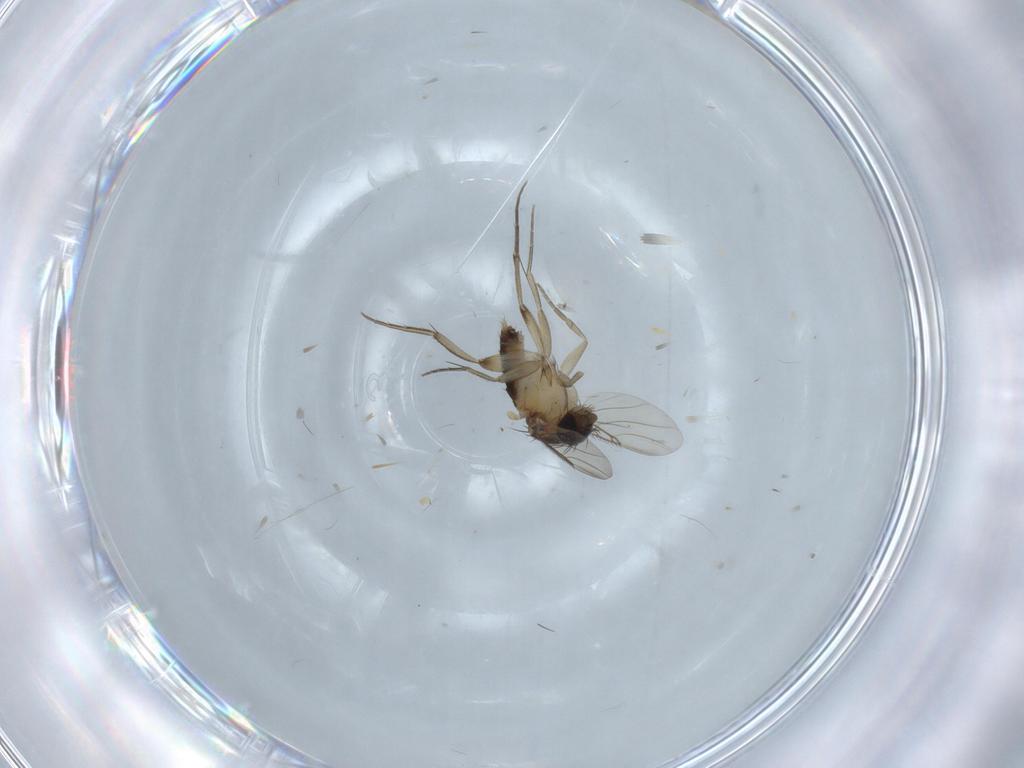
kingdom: Animalia
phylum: Arthropoda
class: Insecta
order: Diptera
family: Phoridae
